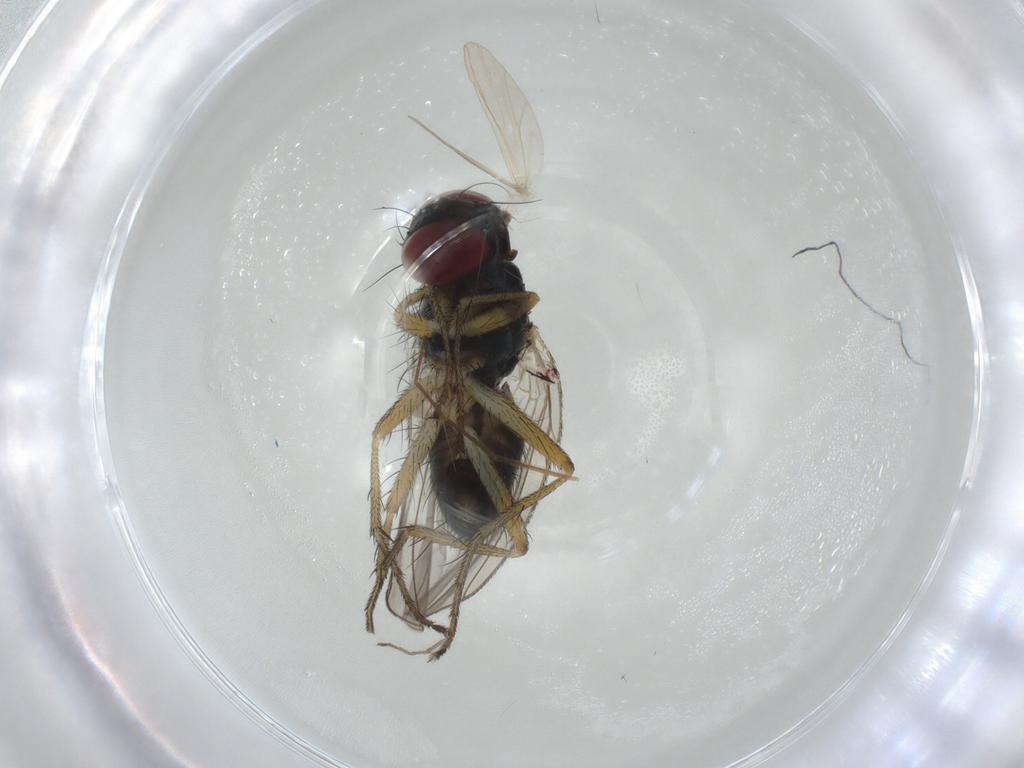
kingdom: Animalia
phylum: Arthropoda
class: Insecta
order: Diptera
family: Muscidae
